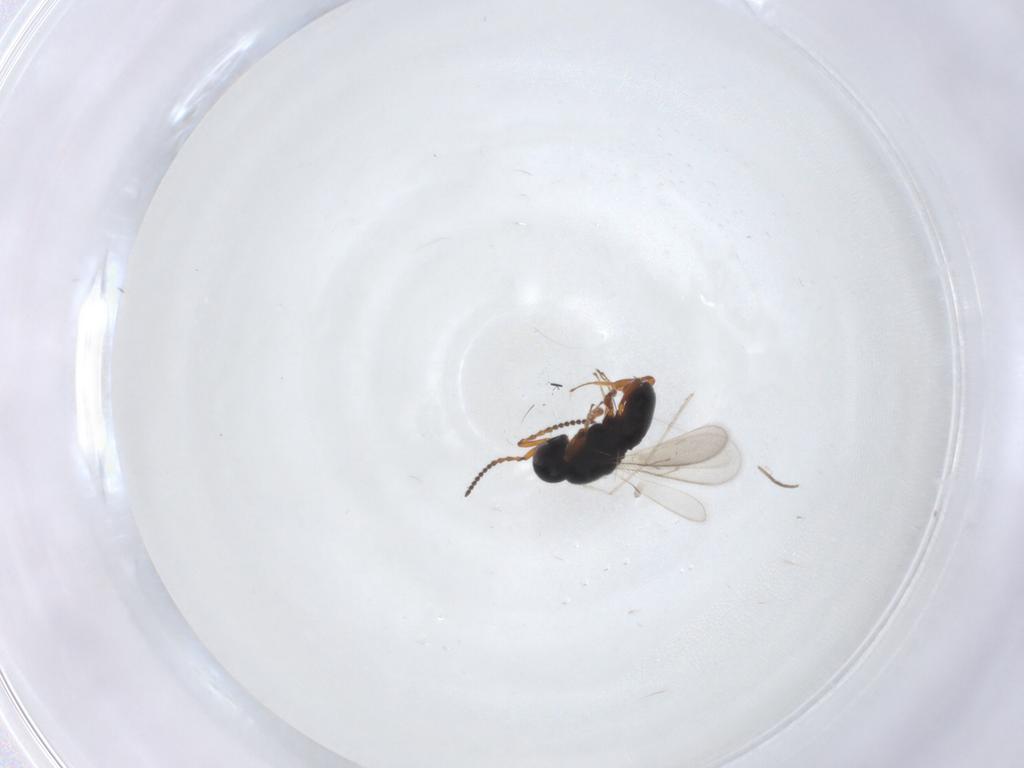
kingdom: Animalia
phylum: Arthropoda
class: Insecta
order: Hymenoptera
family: Scelionidae
